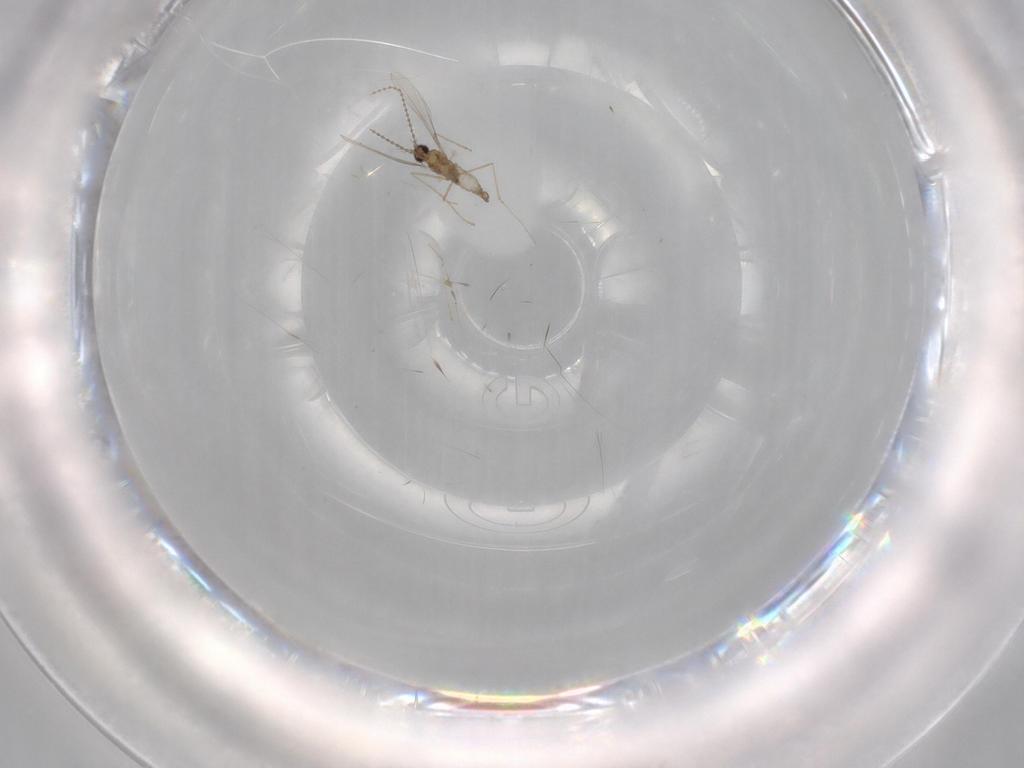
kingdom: Animalia
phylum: Arthropoda
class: Insecta
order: Diptera
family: Cecidomyiidae
